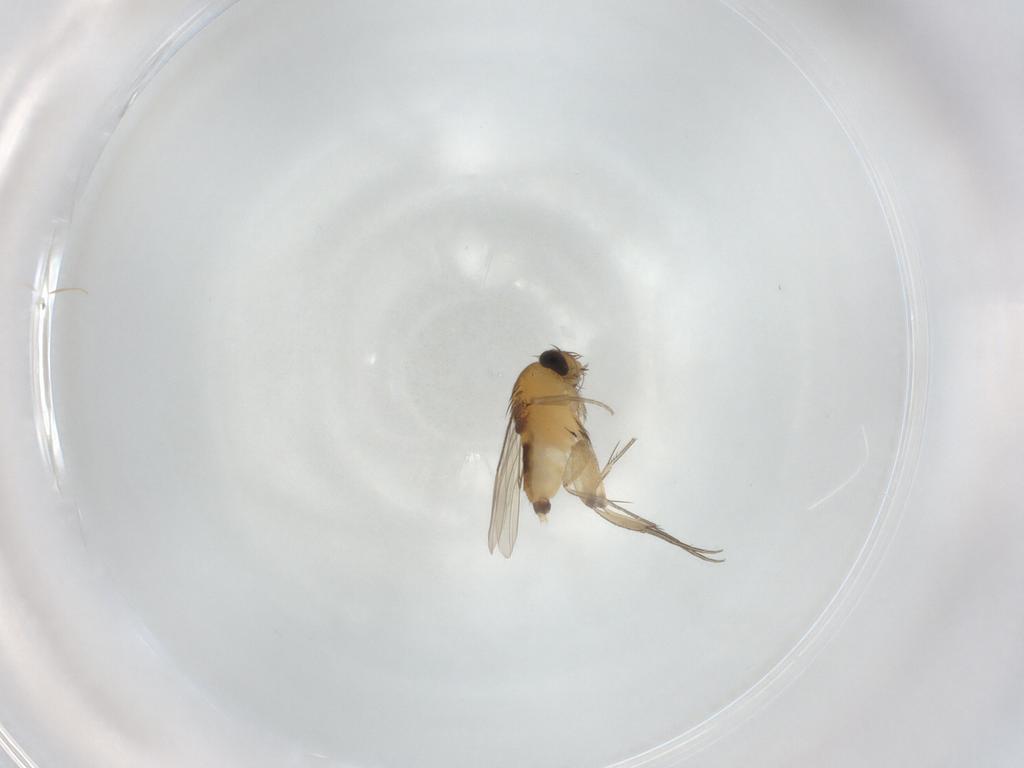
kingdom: Animalia
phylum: Arthropoda
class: Insecta
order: Diptera
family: Phoridae
